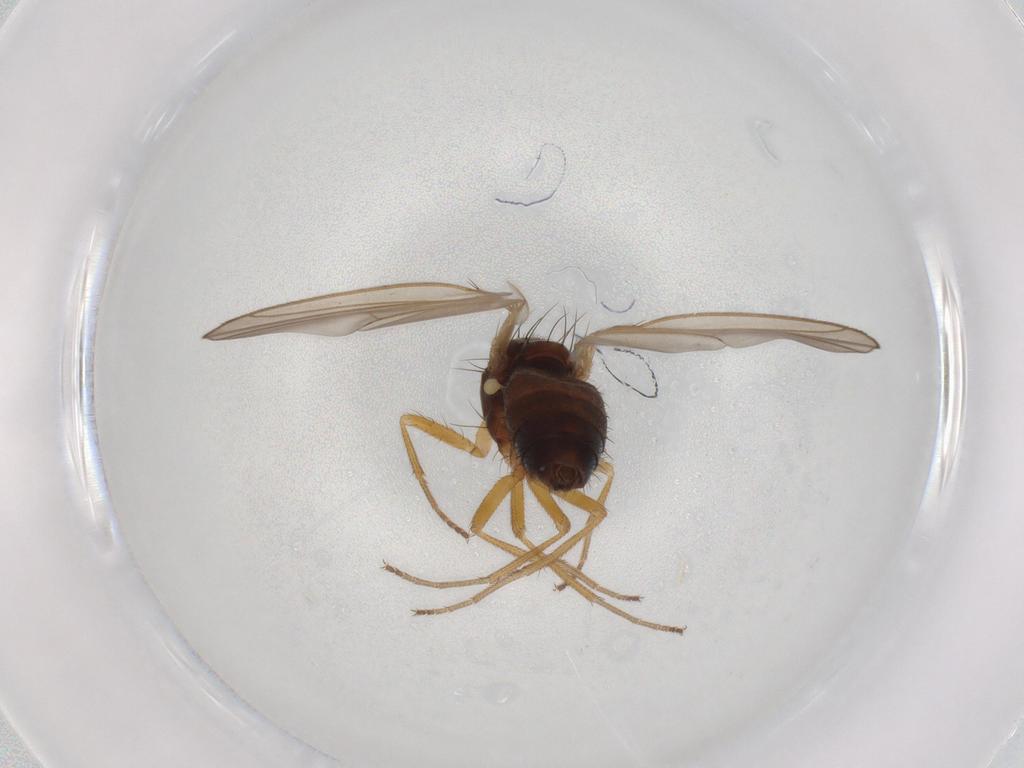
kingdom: Animalia
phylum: Arthropoda
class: Insecta
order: Diptera
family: Drosophilidae
